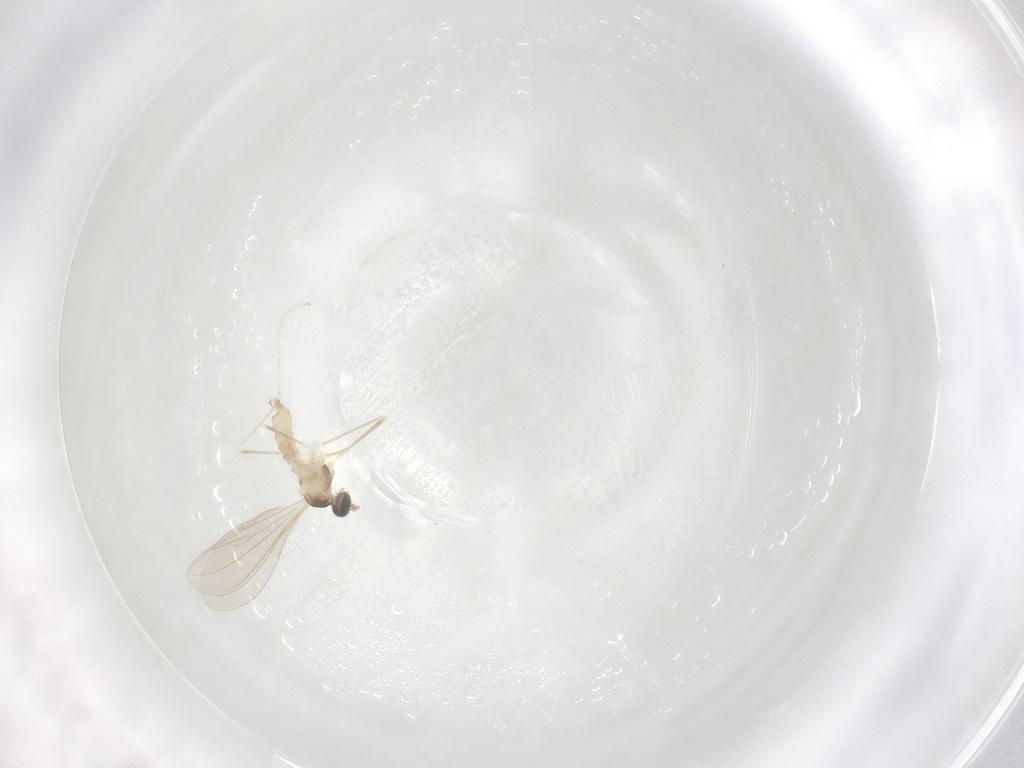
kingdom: Animalia
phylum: Arthropoda
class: Insecta
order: Diptera
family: Cecidomyiidae
